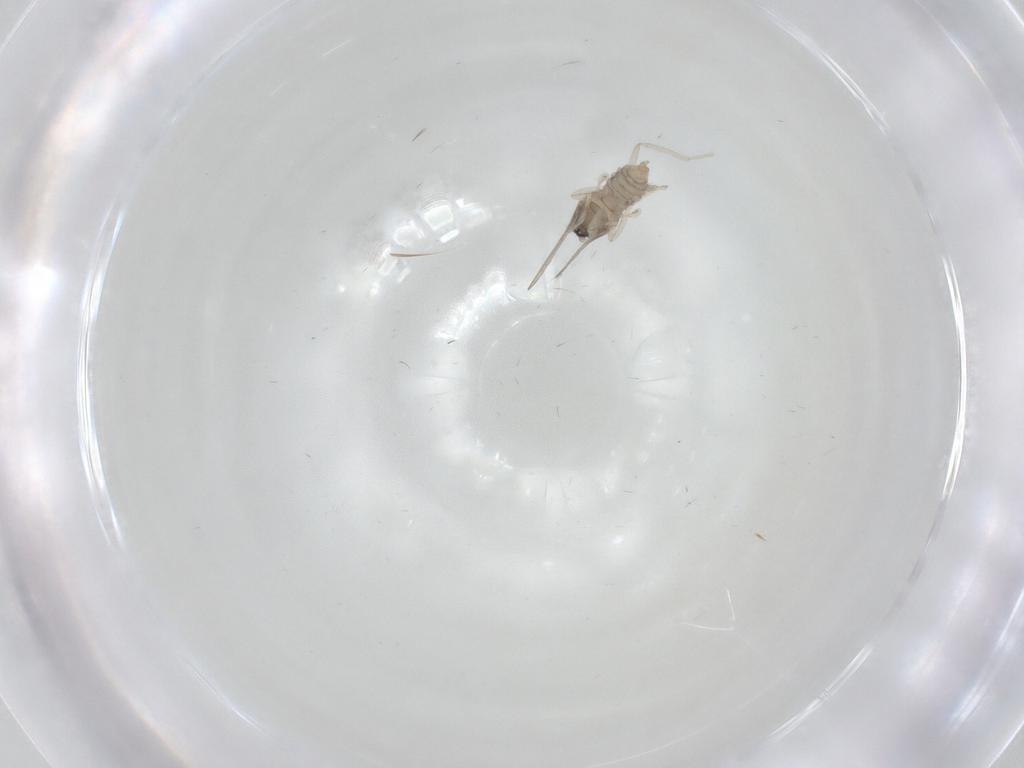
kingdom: Animalia
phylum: Arthropoda
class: Insecta
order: Diptera
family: Cecidomyiidae
